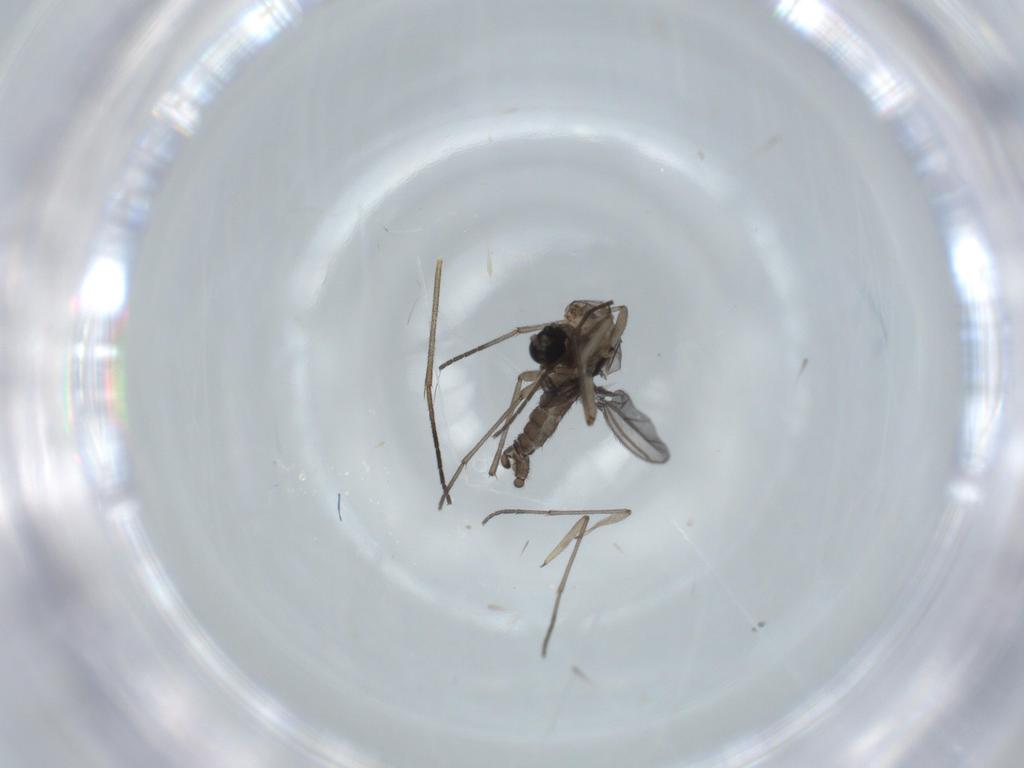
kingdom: Animalia
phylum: Arthropoda
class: Insecta
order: Diptera
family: Sciaridae
